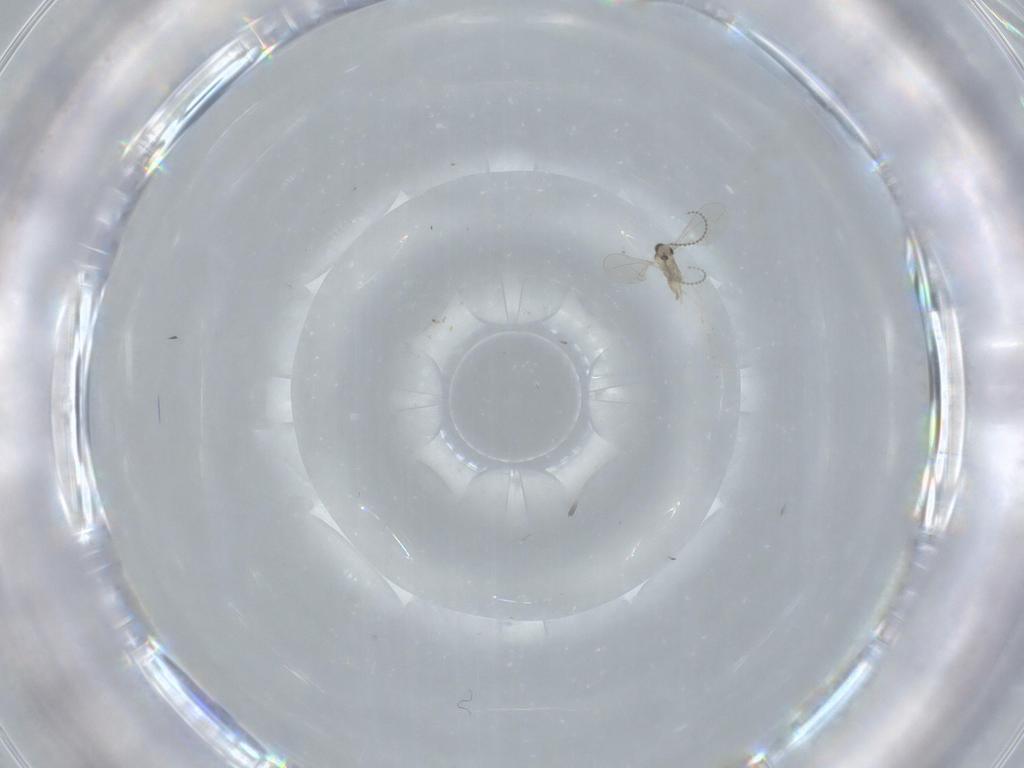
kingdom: Animalia
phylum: Arthropoda
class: Insecta
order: Diptera
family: Cecidomyiidae
